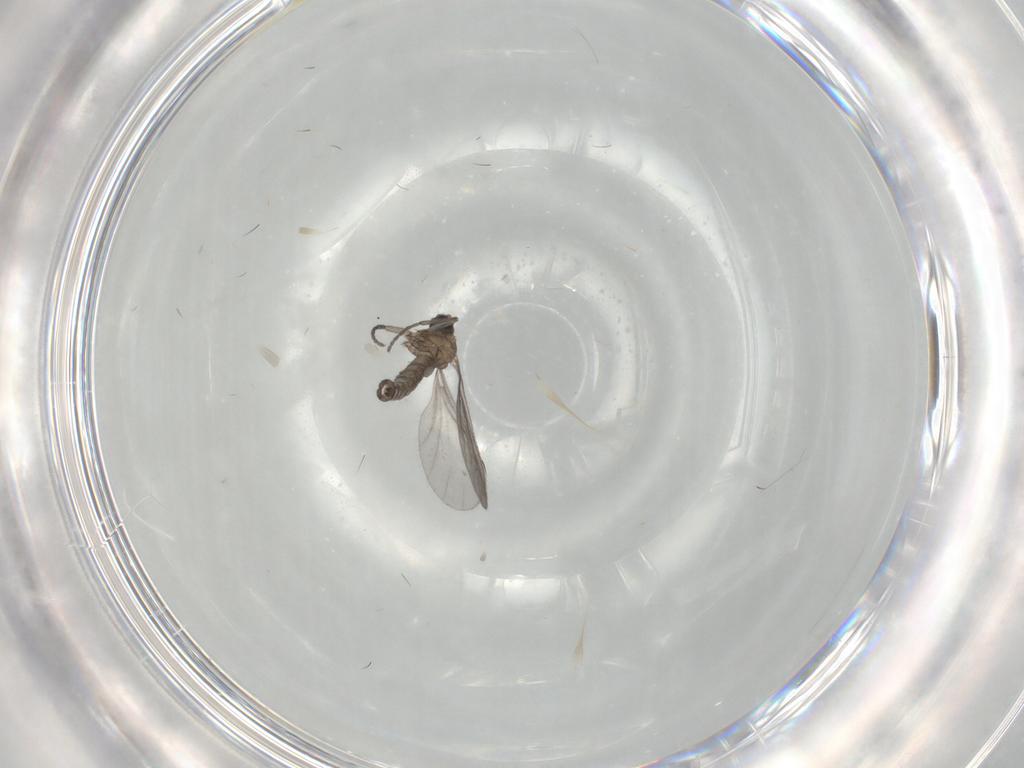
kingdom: Animalia
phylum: Arthropoda
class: Insecta
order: Diptera
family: Sciaridae
